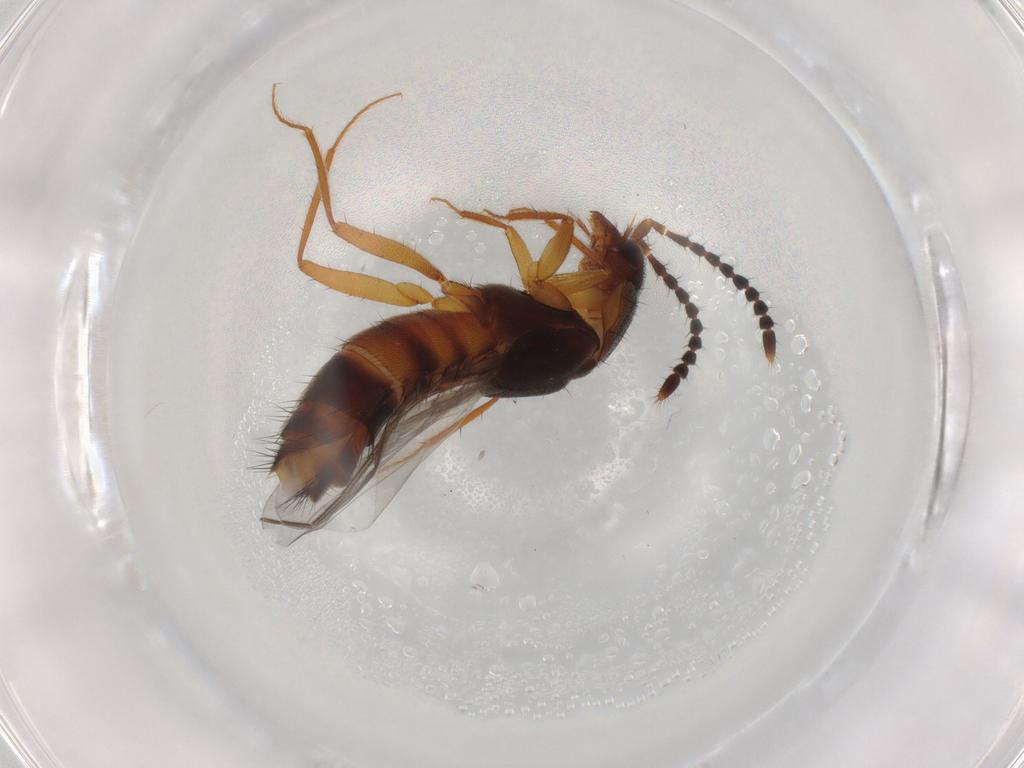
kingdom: Animalia
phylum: Arthropoda
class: Insecta
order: Coleoptera
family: Staphylinidae
